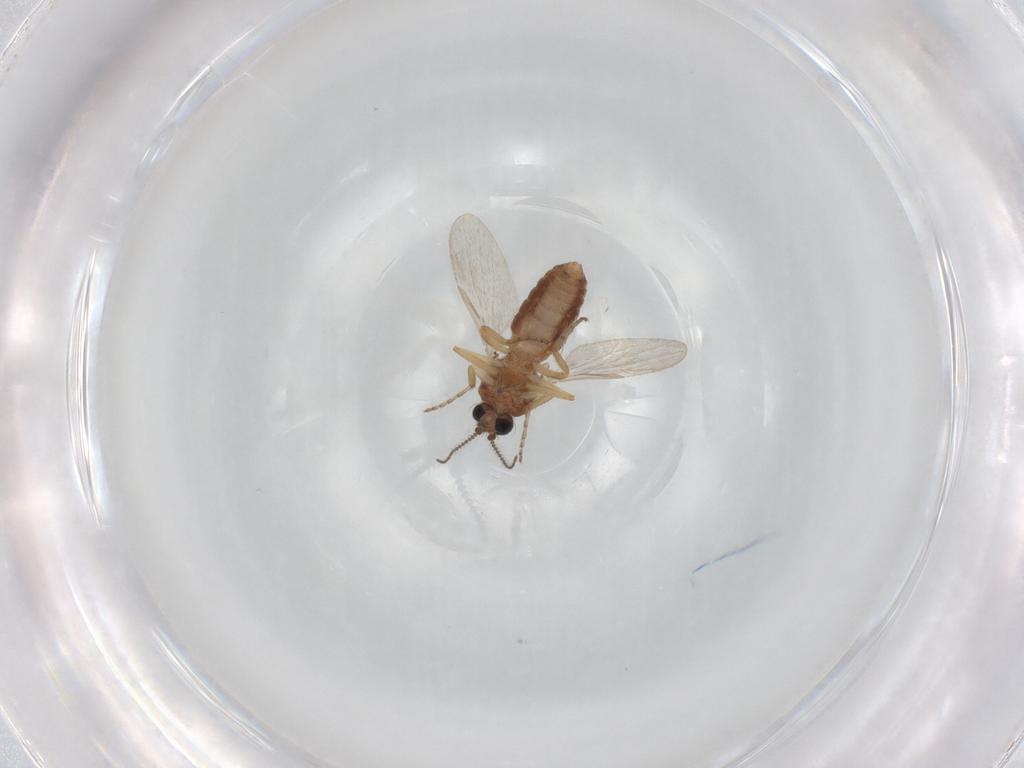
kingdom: Animalia
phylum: Arthropoda
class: Insecta
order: Diptera
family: Ceratopogonidae
